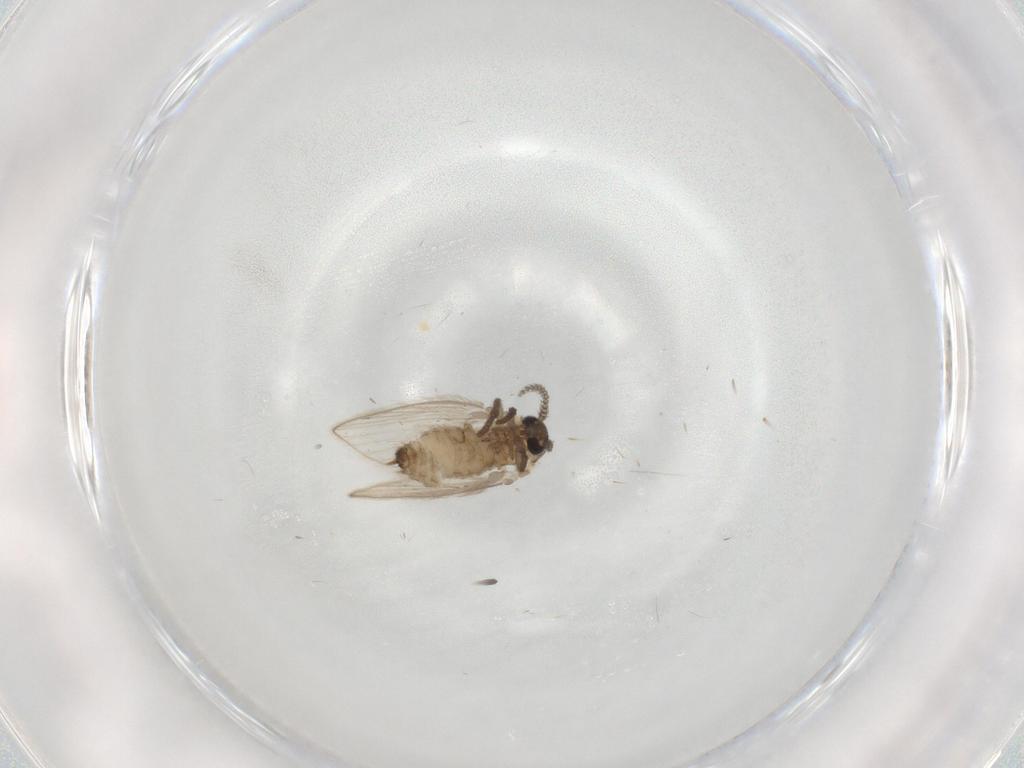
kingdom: Animalia
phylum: Arthropoda
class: Insecta
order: Diptera
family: Psychodidae
